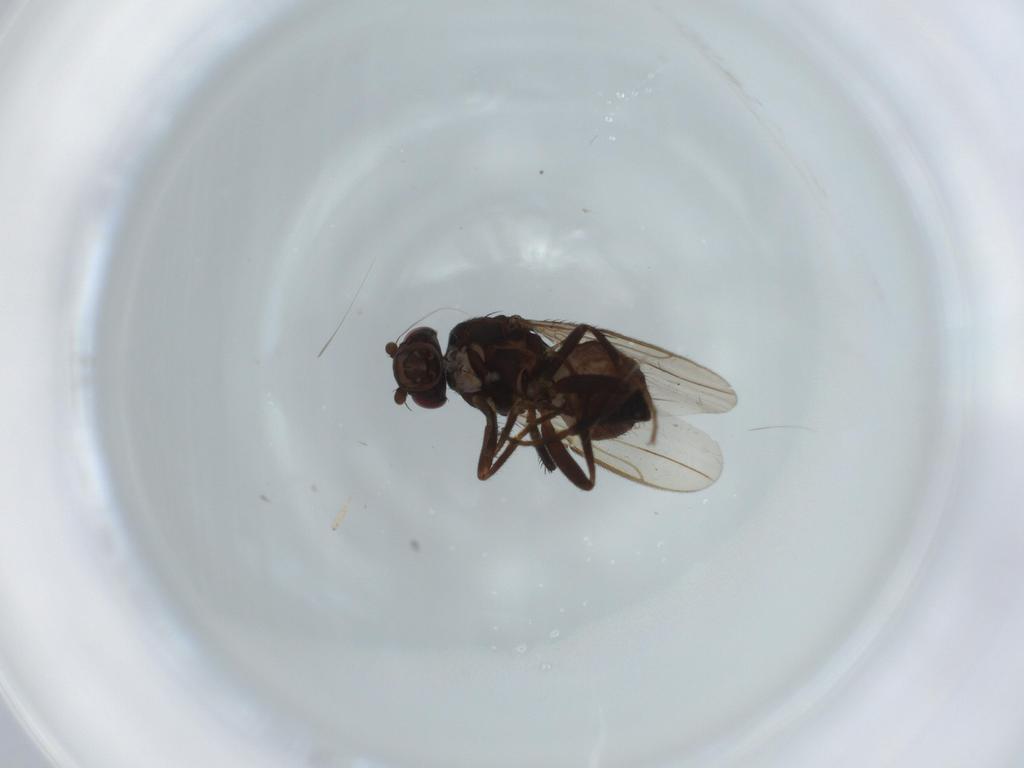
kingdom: Animalia
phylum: Arthropoda
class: Insecta
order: Diptera
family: Sphaeroceridae
